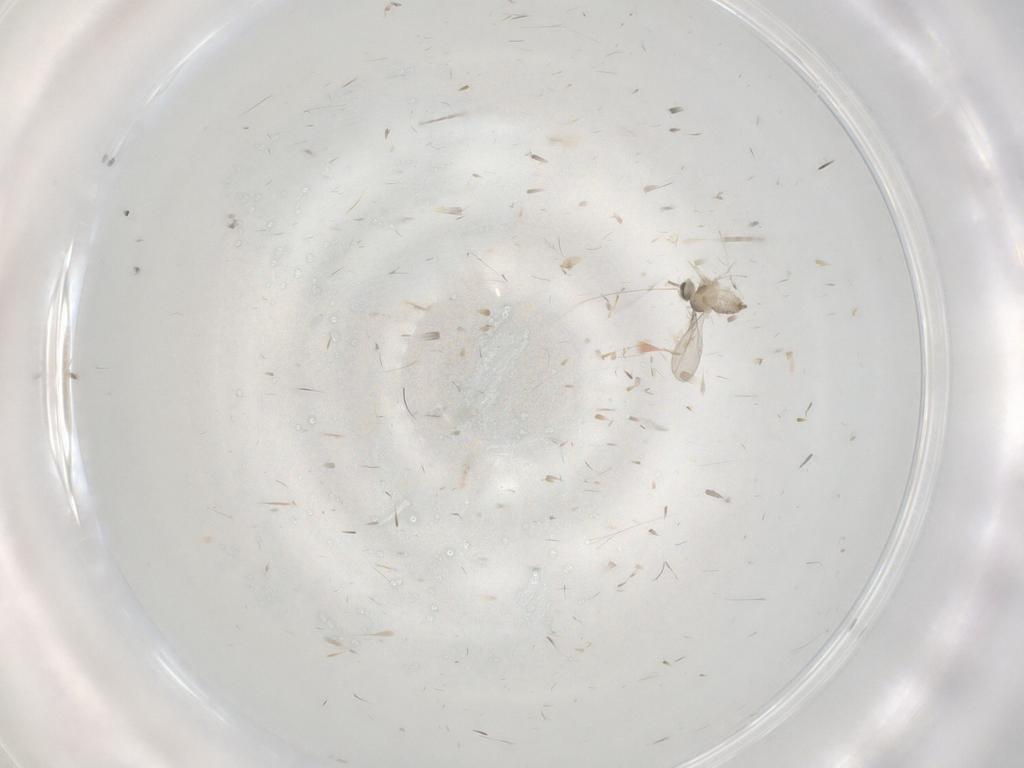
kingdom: Animalia
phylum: Arthropoda
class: Insecta
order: Diptera
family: Cecidomyiidae
